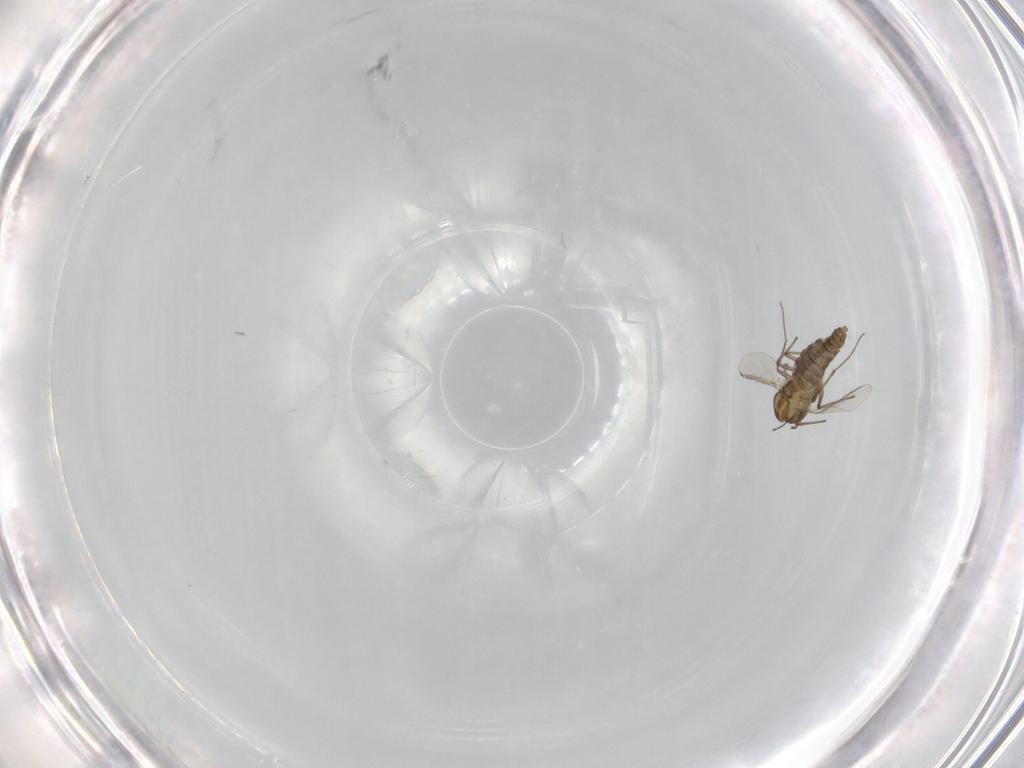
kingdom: Animalia
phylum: Arthropoda
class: Insecta
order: Diptera
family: Chironomidae
